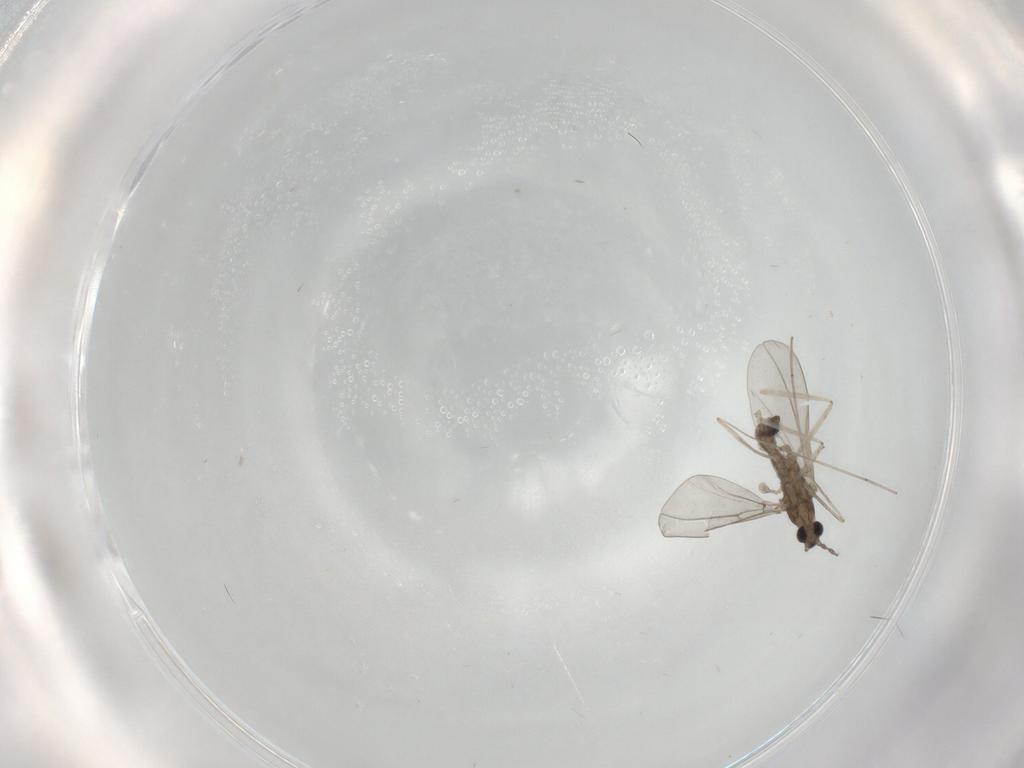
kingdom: Animalia
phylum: Arthropoda
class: Insecta
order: Diptera
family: Cecidomyiidae
